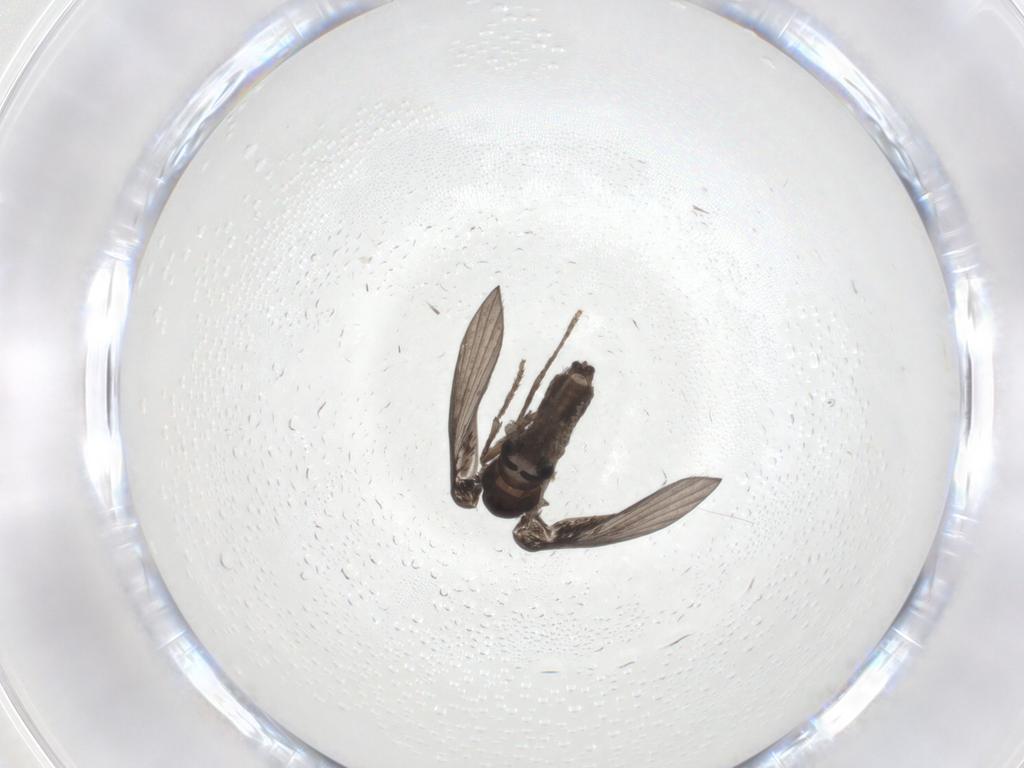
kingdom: Animalia
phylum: Arthropoda
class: Insecta
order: Diptera
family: Psychodidae
